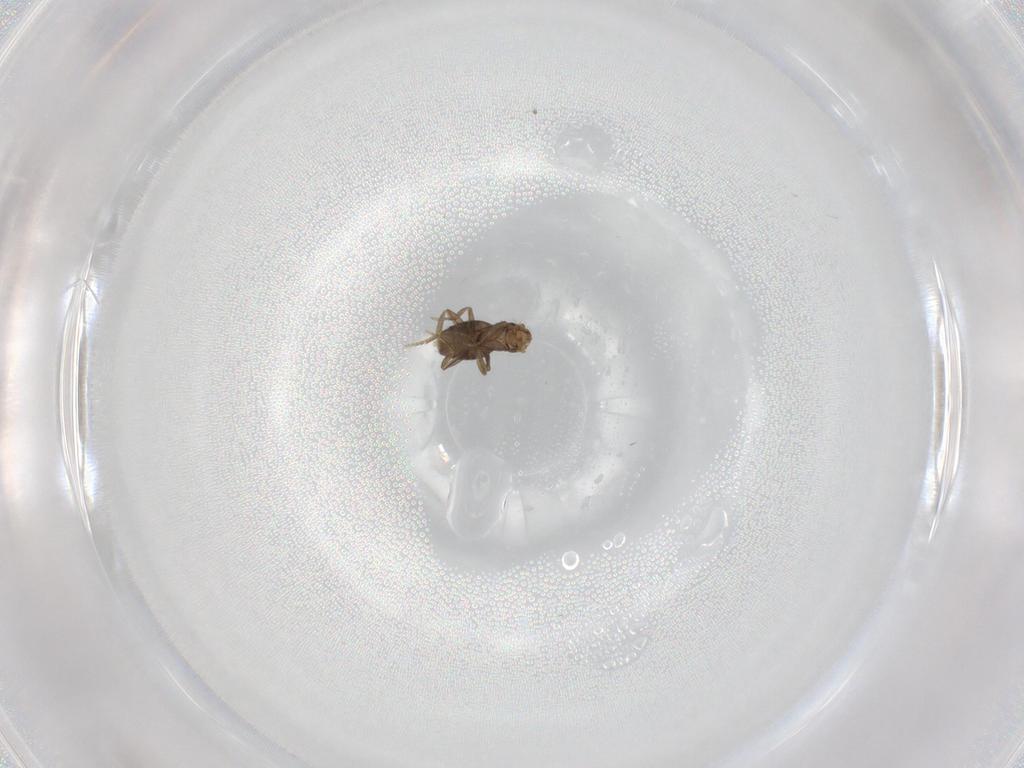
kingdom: Animalia
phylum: Arthropoda
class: Insecta
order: Diptera
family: Phoridae
